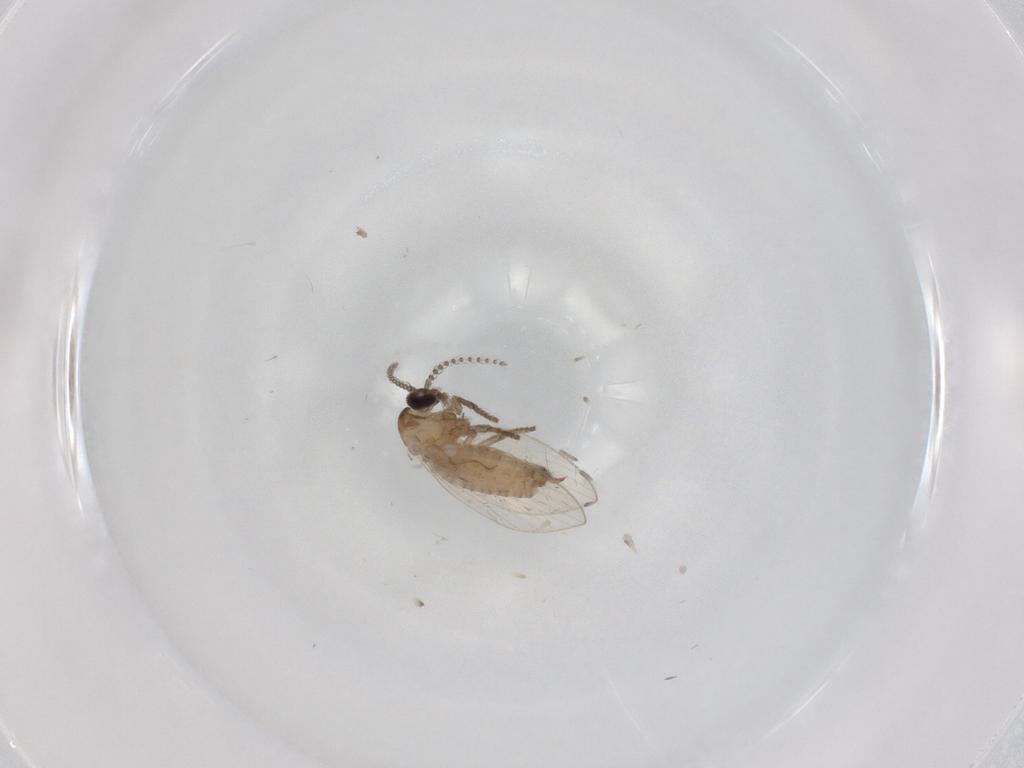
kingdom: Animalia
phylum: Arthropoda
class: Insecta
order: Diptera
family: Psychodidae
